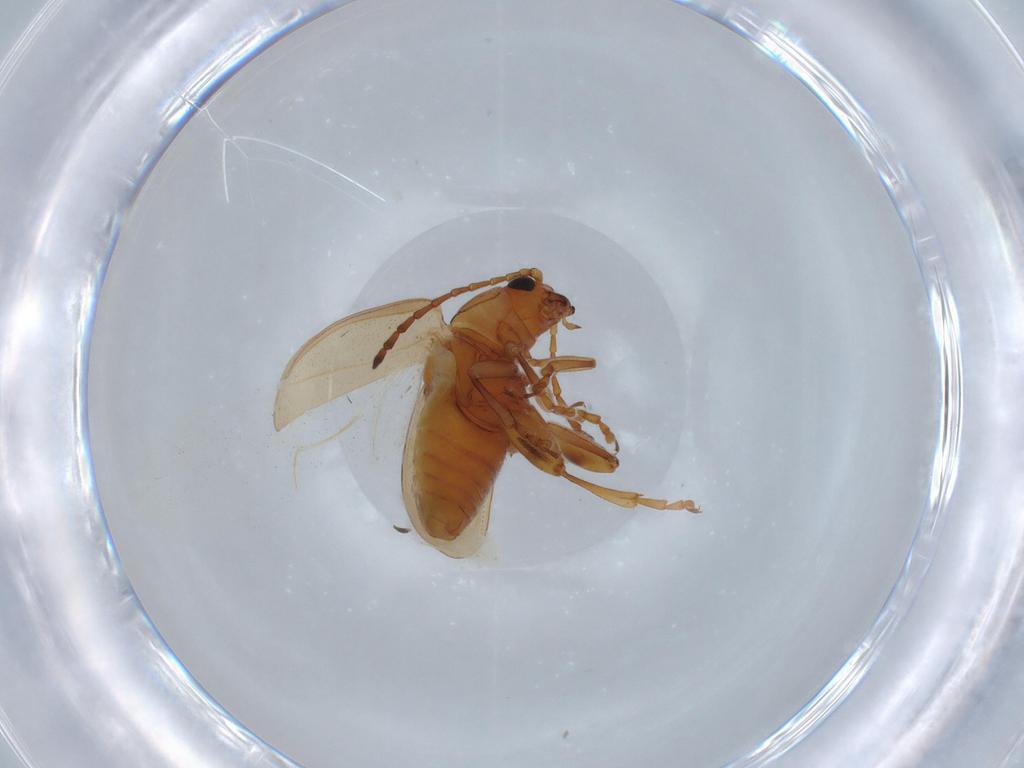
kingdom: Animalia
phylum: Arthropoda
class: Insecta
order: Coleoptera
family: Chrysomelidae
